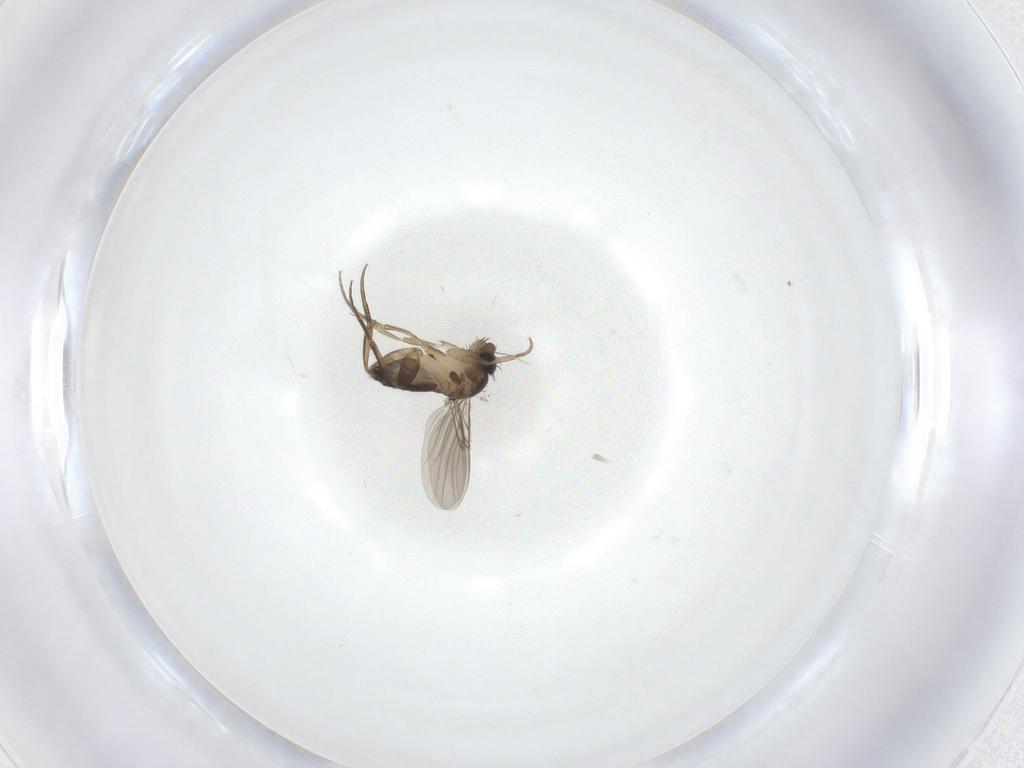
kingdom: Animalia
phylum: Arthropoda
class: Insecta
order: Diptera
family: Phoridae
